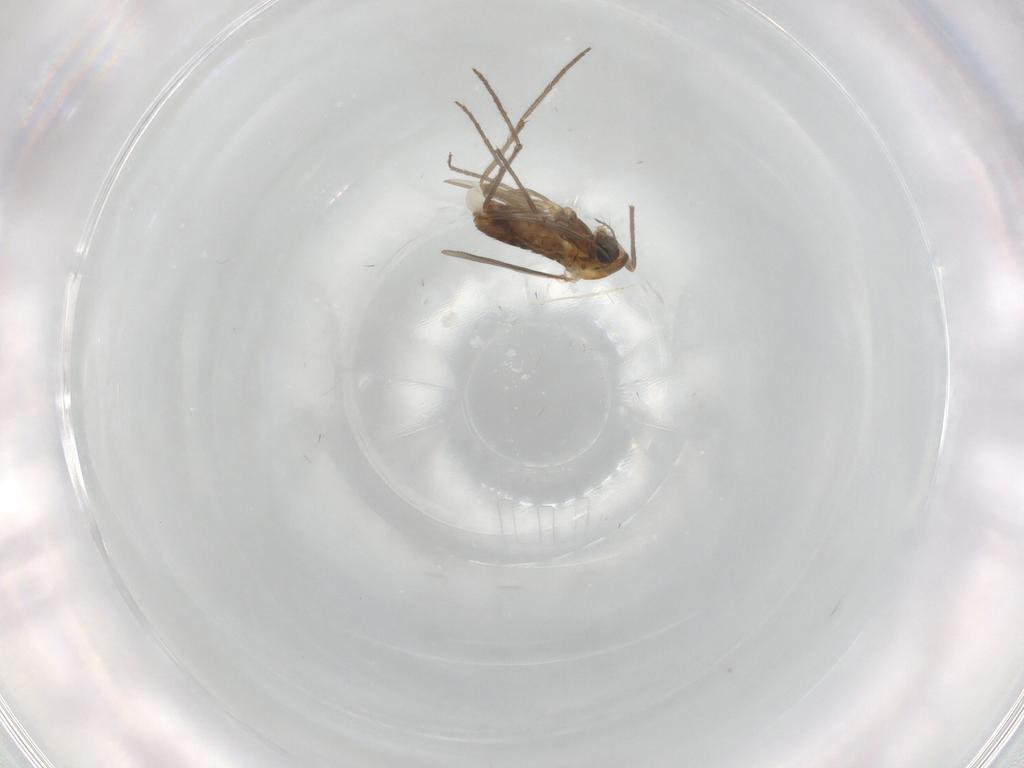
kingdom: Animalia
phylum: Arthropoda
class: Insecta
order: Diptera
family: Chironomidae
